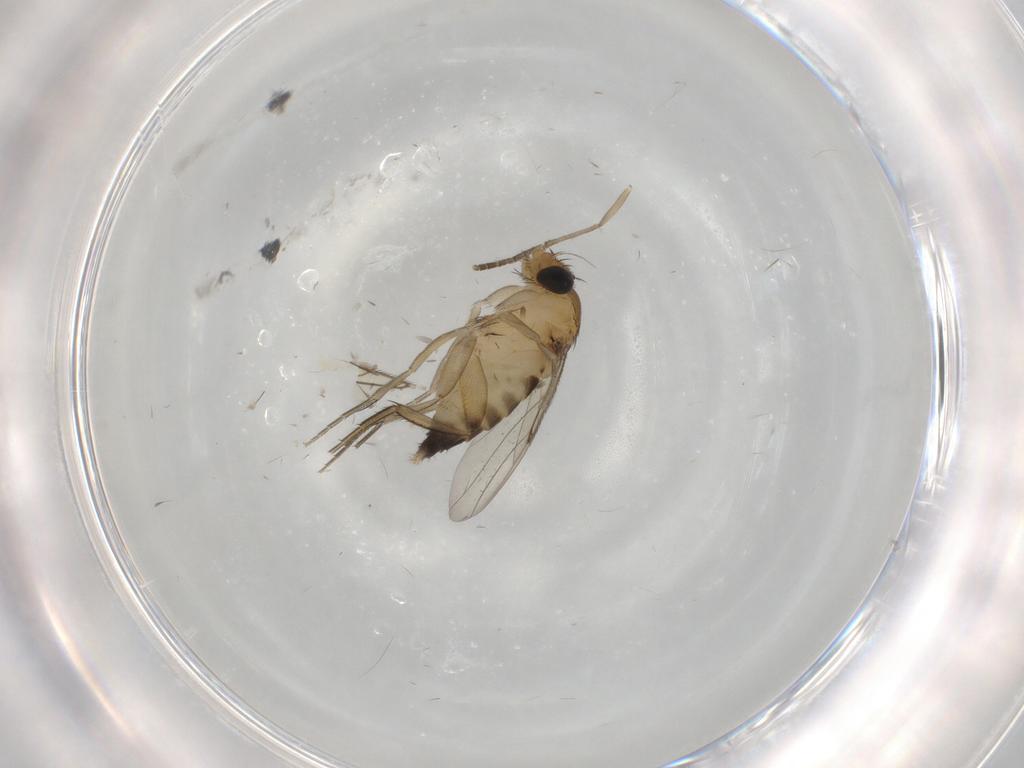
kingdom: Animalia
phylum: Arthropoda
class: Insecta
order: Diptera
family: Phoridae
